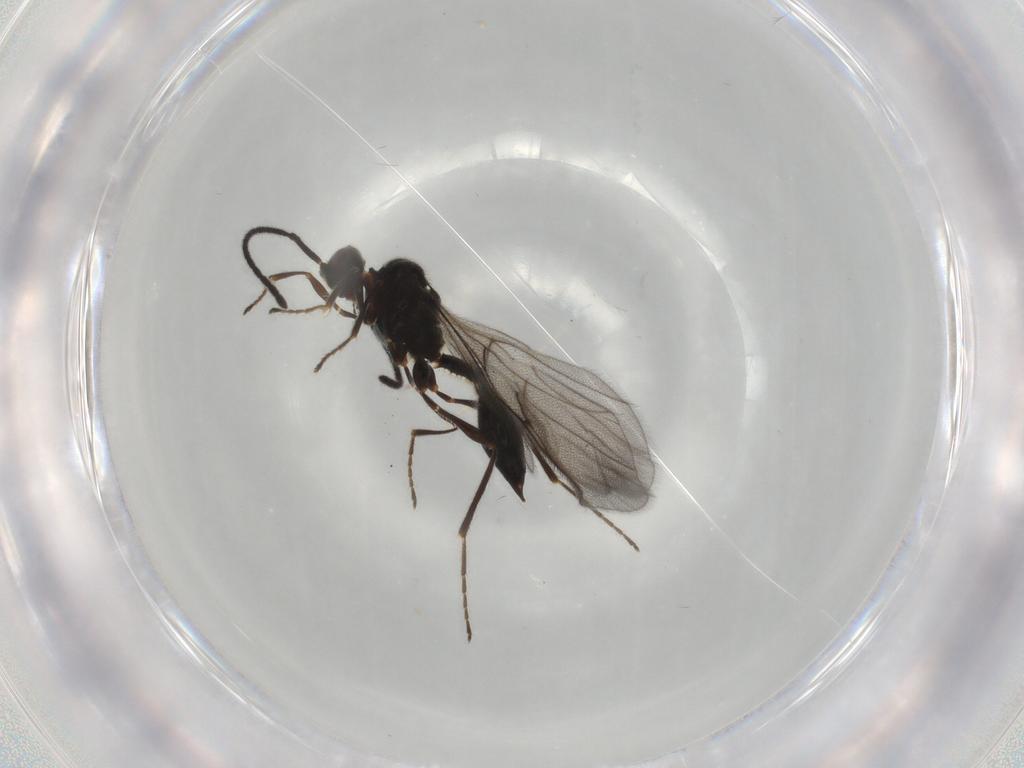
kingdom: Animalia
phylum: Arthropoda
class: Insecta
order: Hymenoptera
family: Diapriidae
